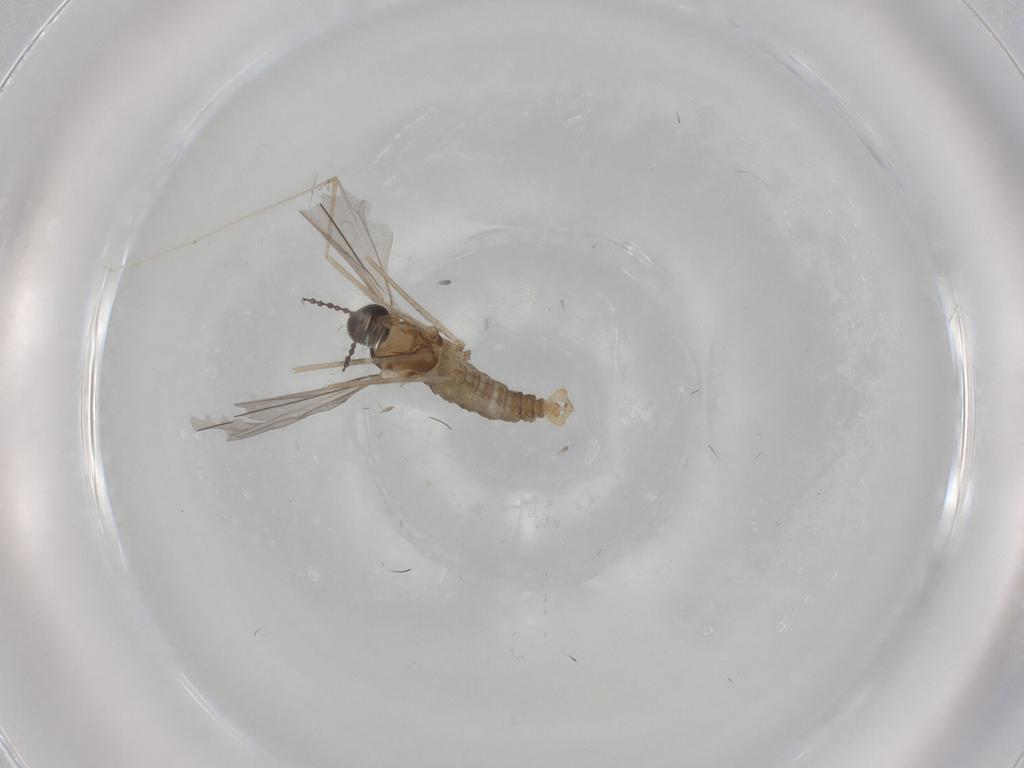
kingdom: Animalia
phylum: Arthropoda
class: Insecta
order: Diptera
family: Cecidomyiidae
